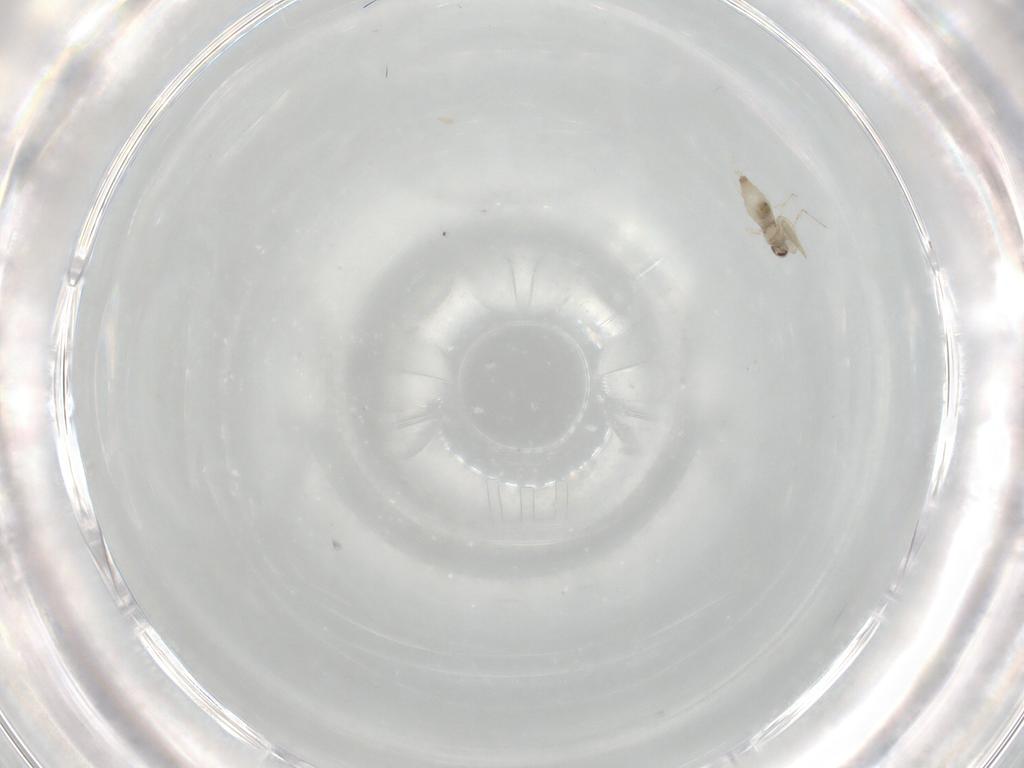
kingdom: Animalia
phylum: Arthropoda
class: Insecta
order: Diptera
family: Cecidomyiidae
